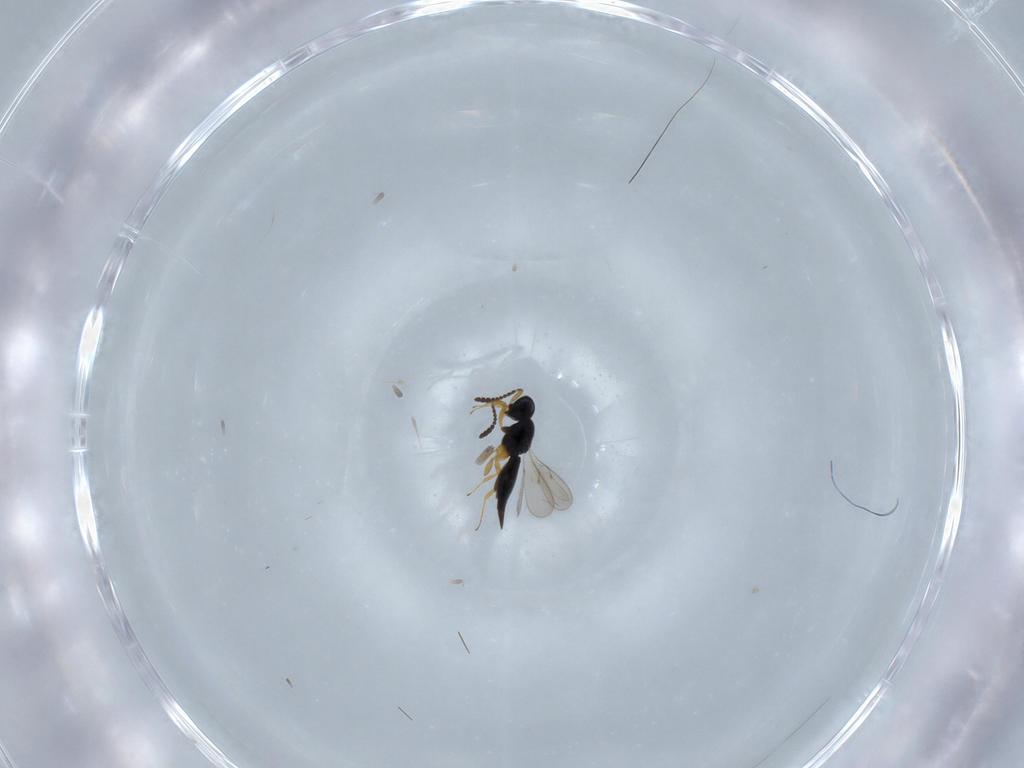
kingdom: Animalia
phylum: Arthropoda
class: Insecta
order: Hymenoptera
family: Scelionidae
